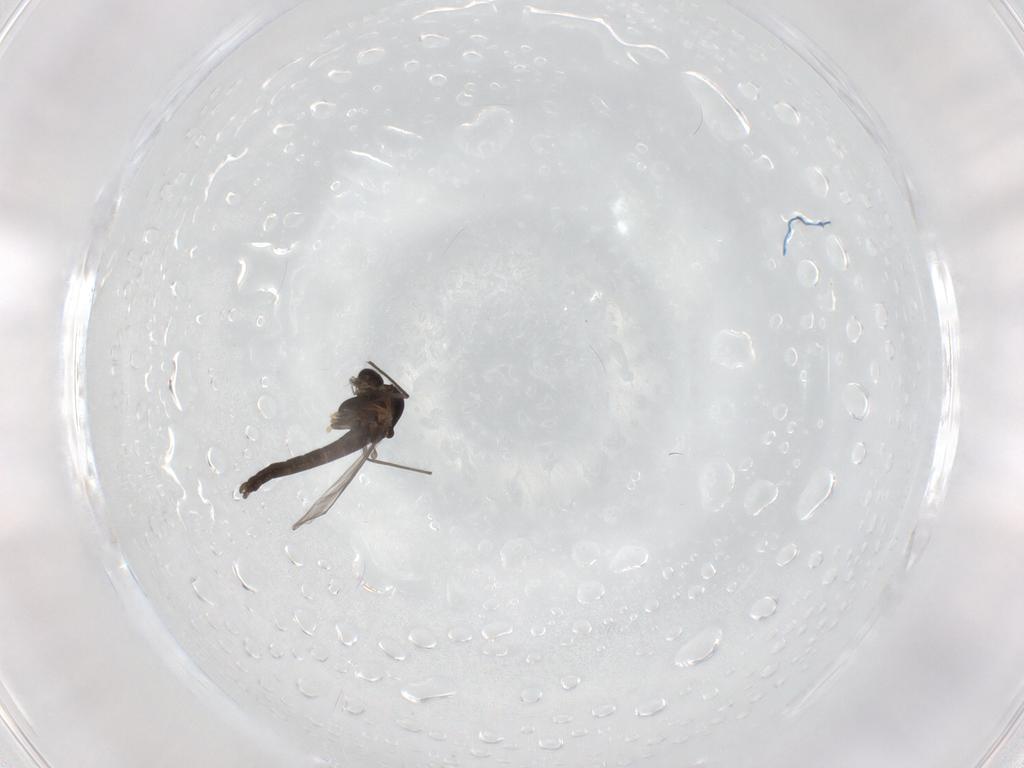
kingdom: Animalia
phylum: Arthropoda
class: Insecta
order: Diptera
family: Chironomidae
